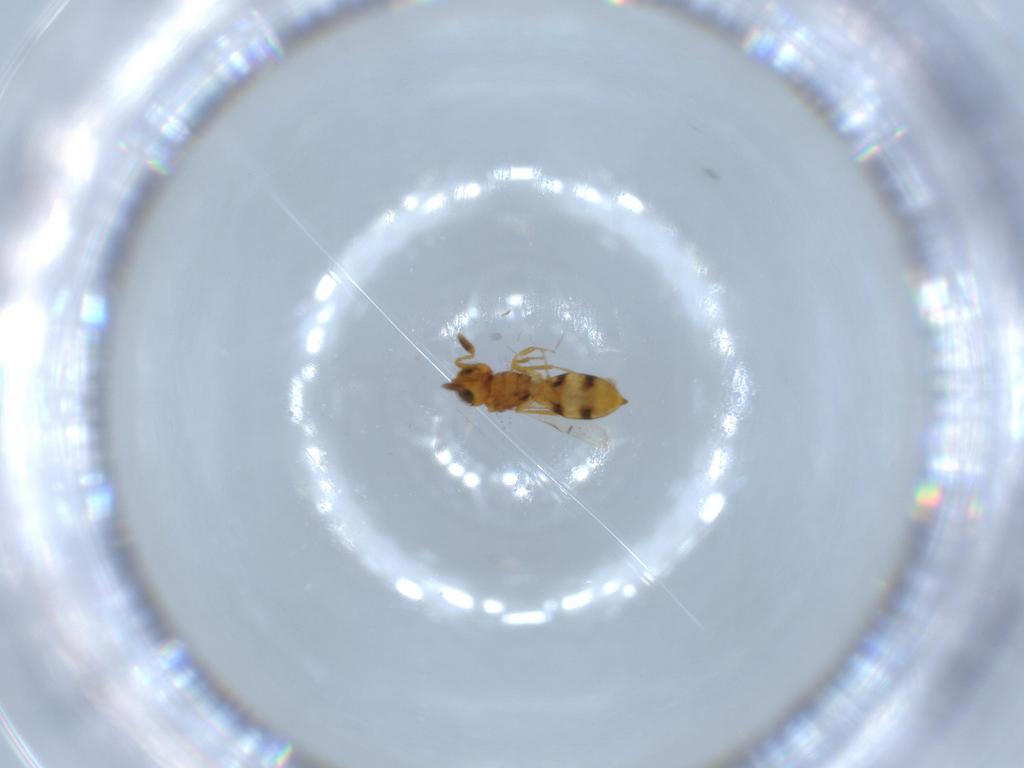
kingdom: Animalia
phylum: Arthropoda
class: Insecta
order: Hymenoptera
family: Scelionidae
